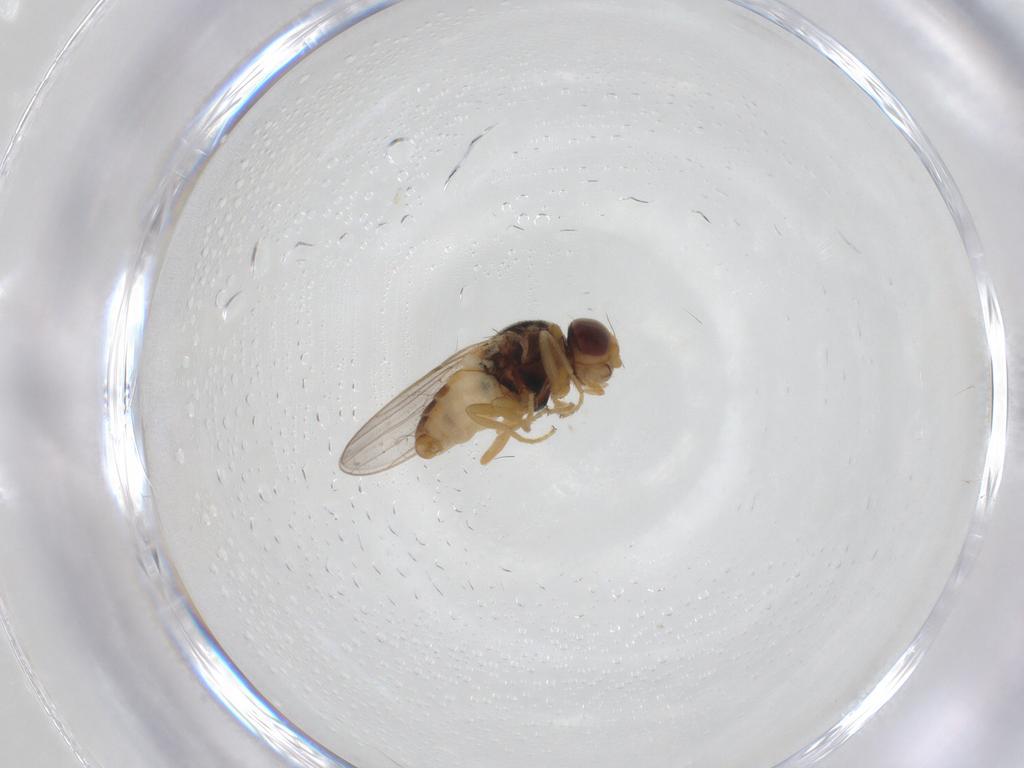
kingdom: Animalia
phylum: Arthropoda
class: Insecta
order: Diptera
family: Chloropidae
